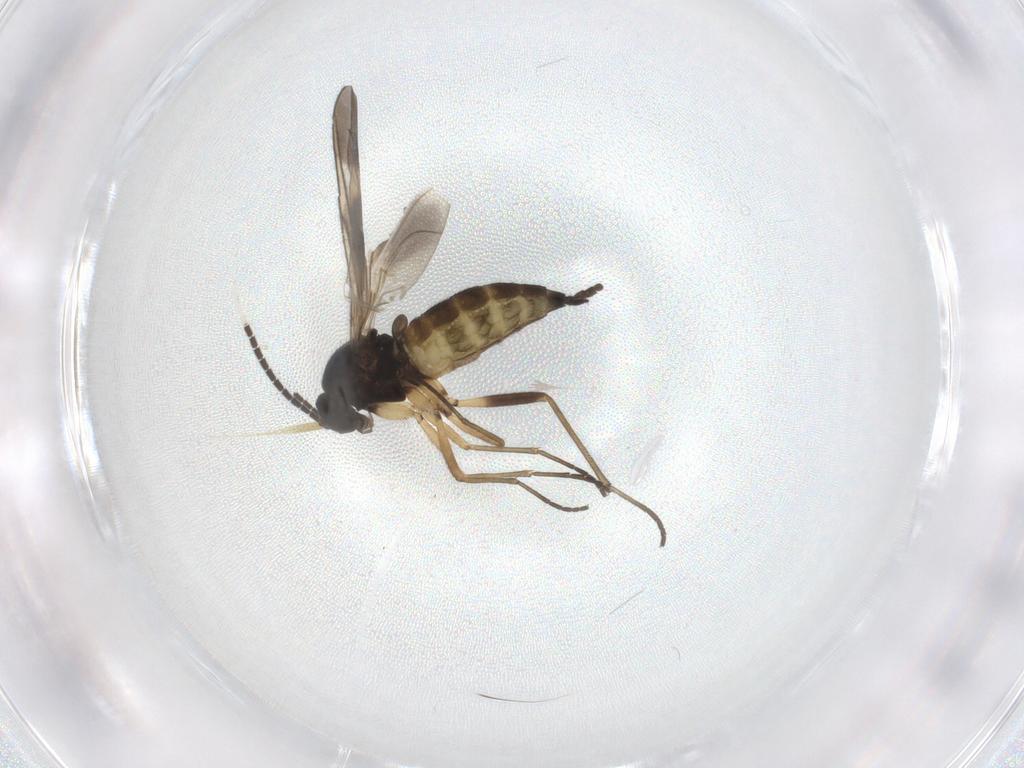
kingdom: Animalia
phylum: Arthropoda
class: Insecta
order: Diptera
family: Sciaridae
